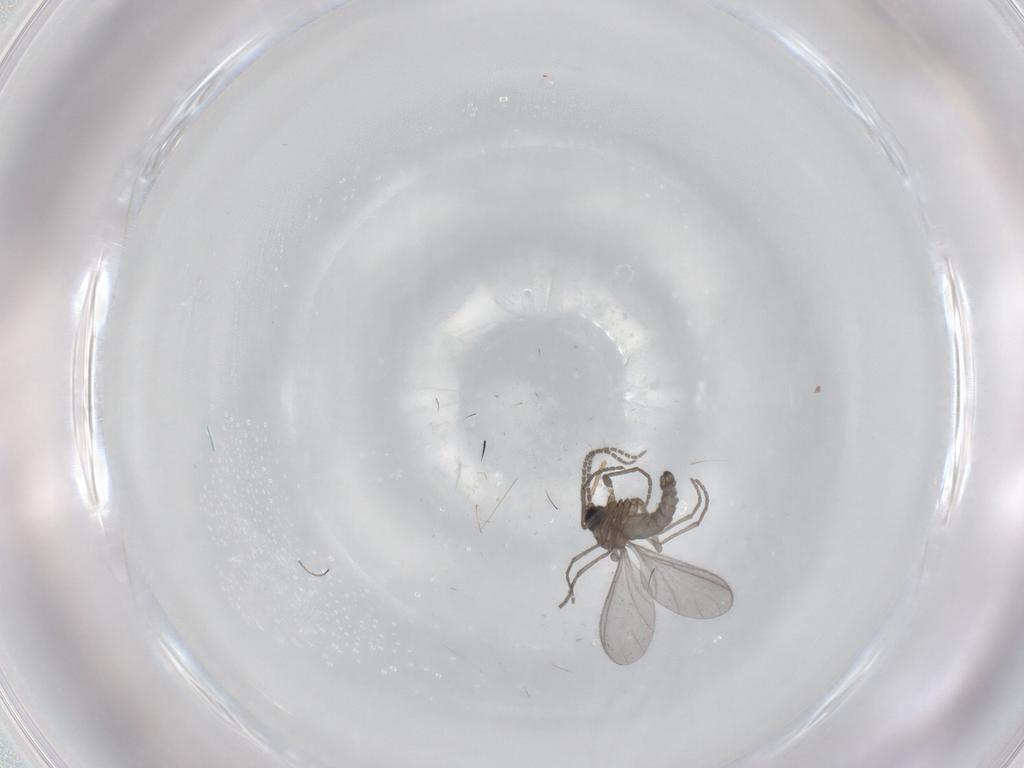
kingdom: Animalia
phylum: Arthropoda
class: Insecta
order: Diptera
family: Sciaridae
